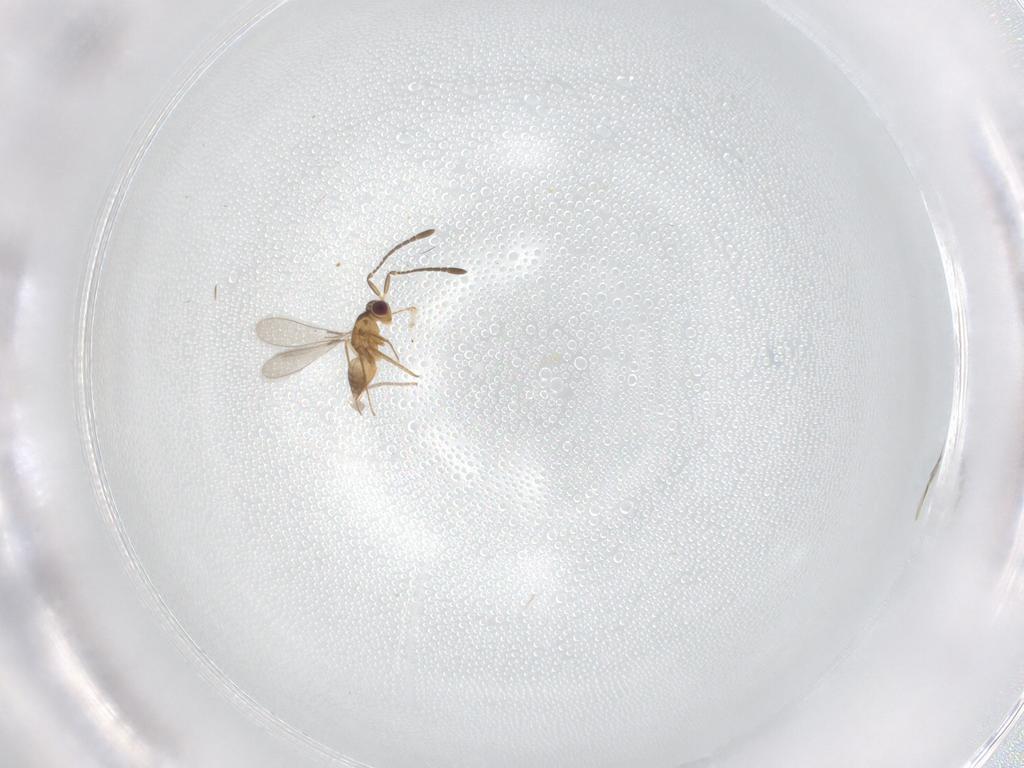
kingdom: Animalia
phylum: Arthropoda
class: Insecta
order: Hymenoptera
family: Mymaridae
